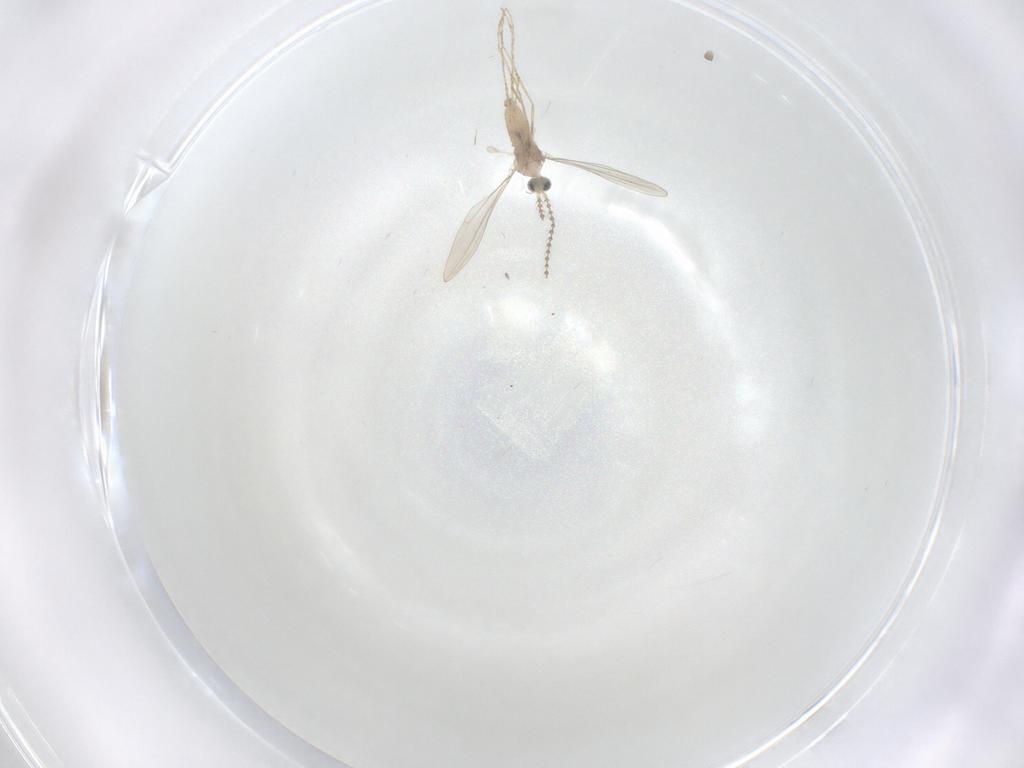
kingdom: Animalia
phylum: Arthropoda
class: Insecta
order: Diptera
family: Cecidomyiidae
